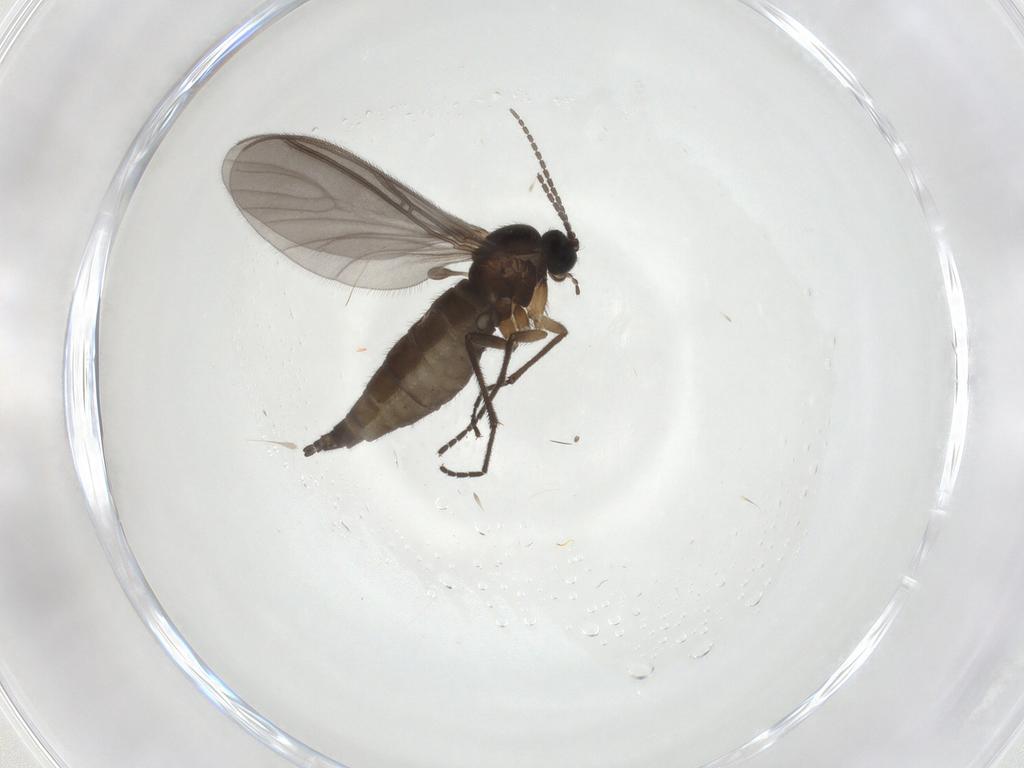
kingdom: Animalia
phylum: Arthropoda
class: Insecta
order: Diptera
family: Sciaridae
